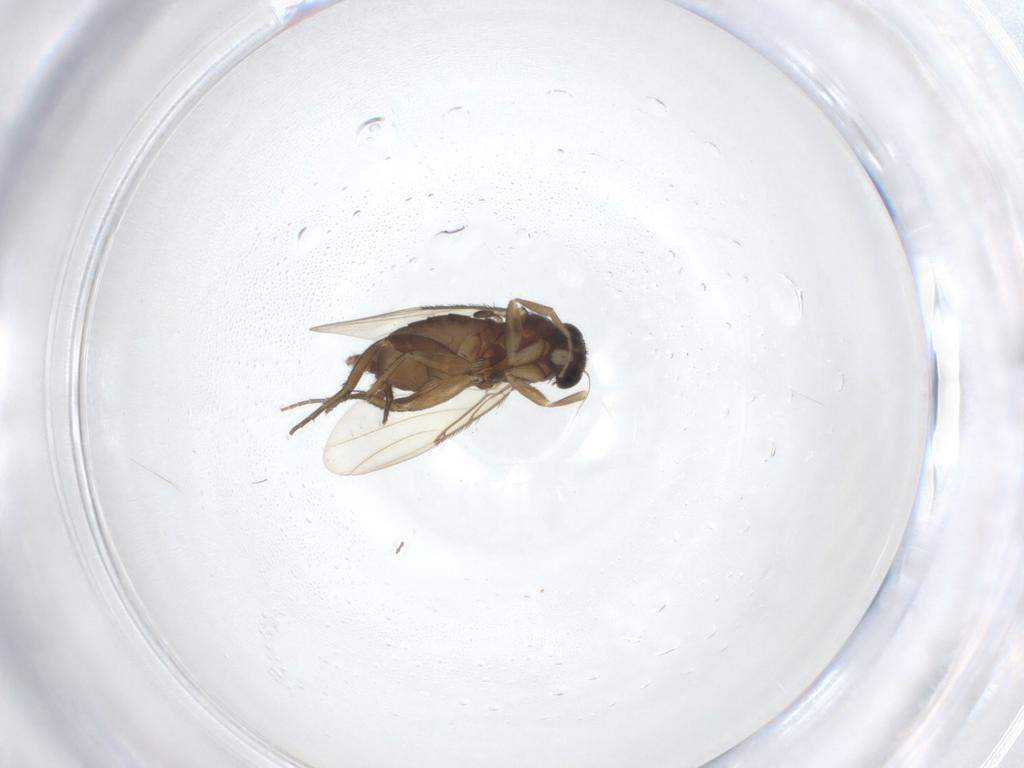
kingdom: Animalia
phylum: Arthropoda
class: Insecta
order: Diptera
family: Phoridae
